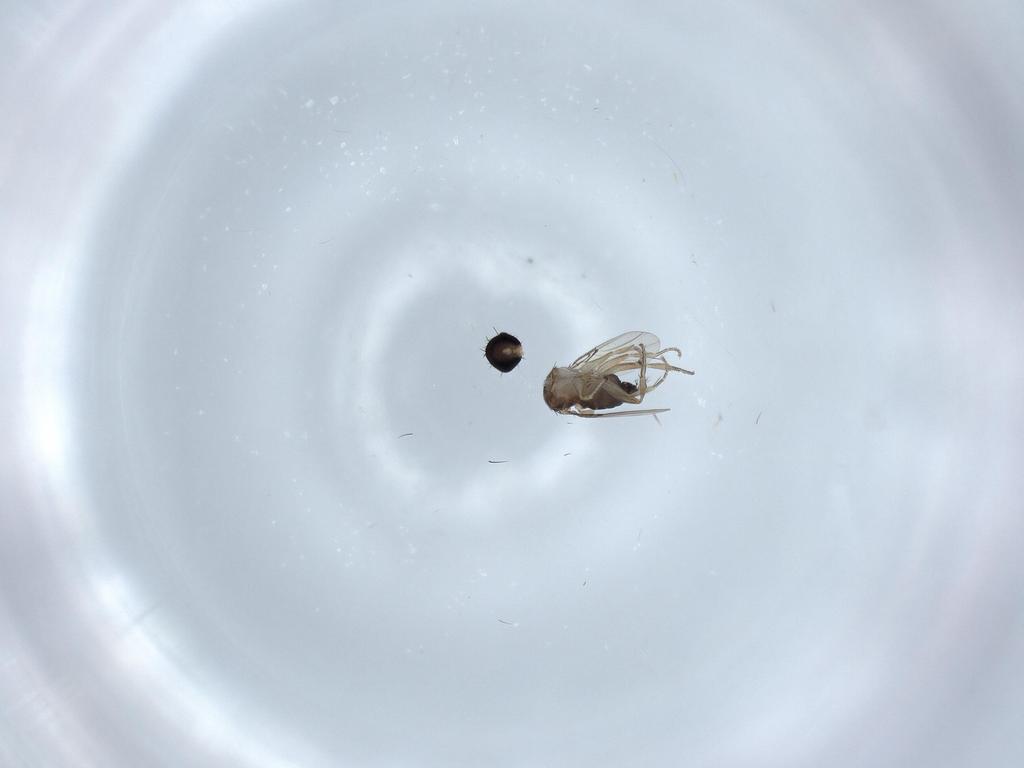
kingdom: Animalia
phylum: Arthropoda
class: Insecta
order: Diptera
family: Phoridae
